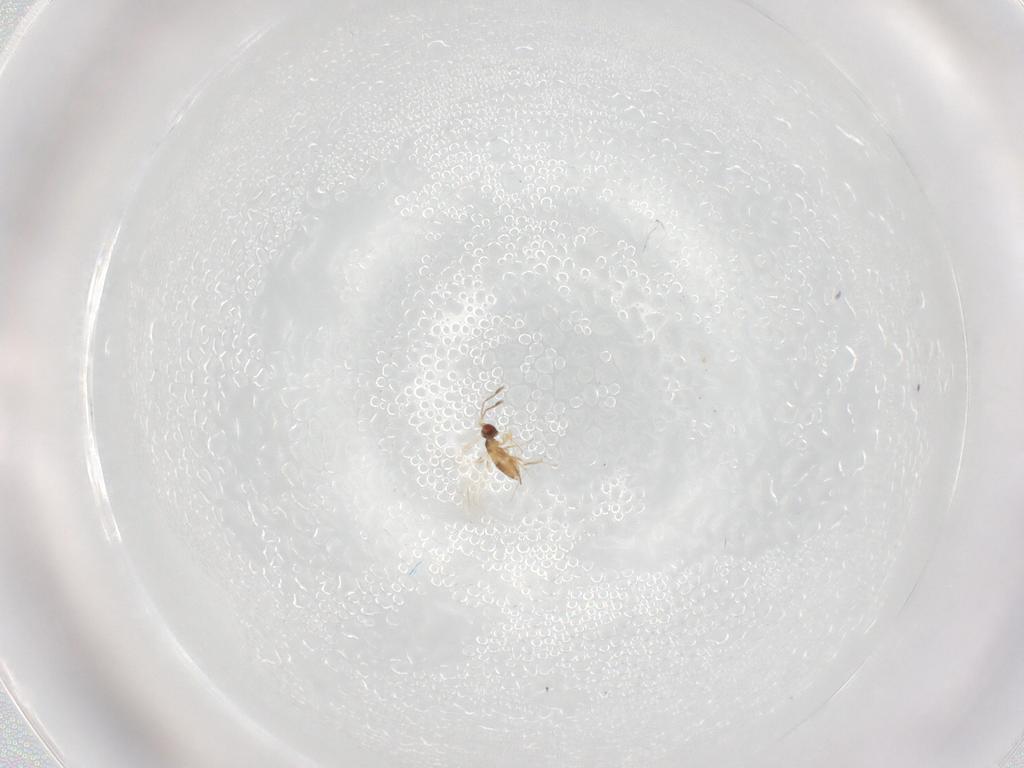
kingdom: Animalia
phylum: Arthropoda
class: Insecta
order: Hymenoptera
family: Mymaridae
